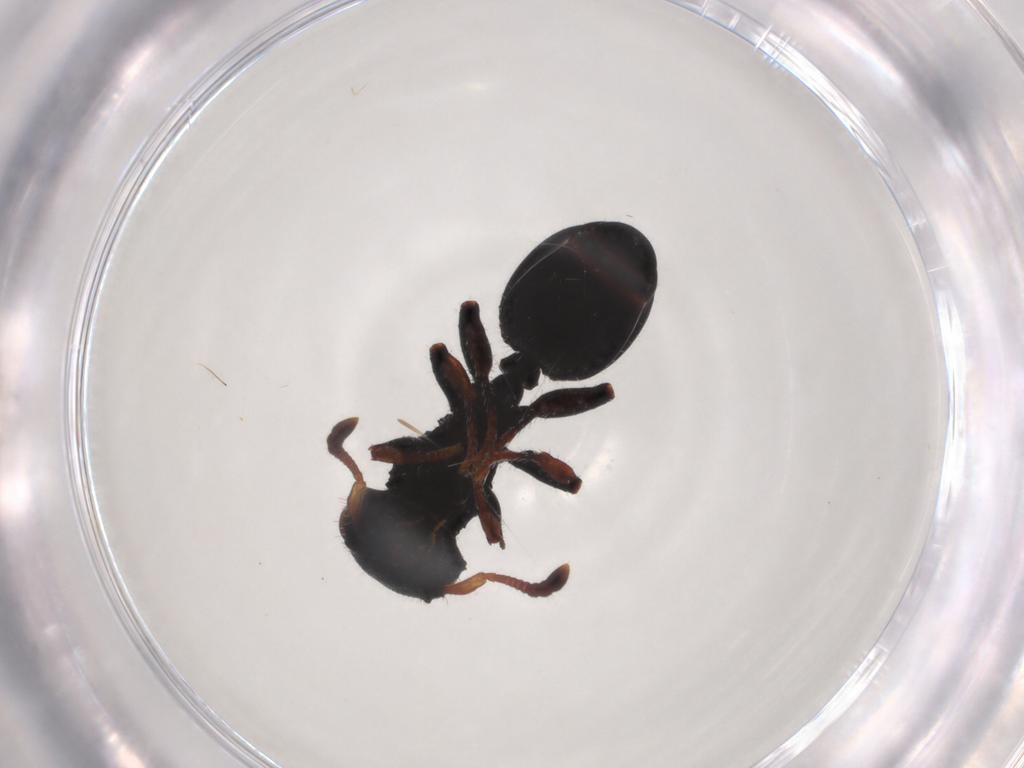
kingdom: Animalia
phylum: Arthropoda
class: Insecta
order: Hymenoptera
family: Formicidae
